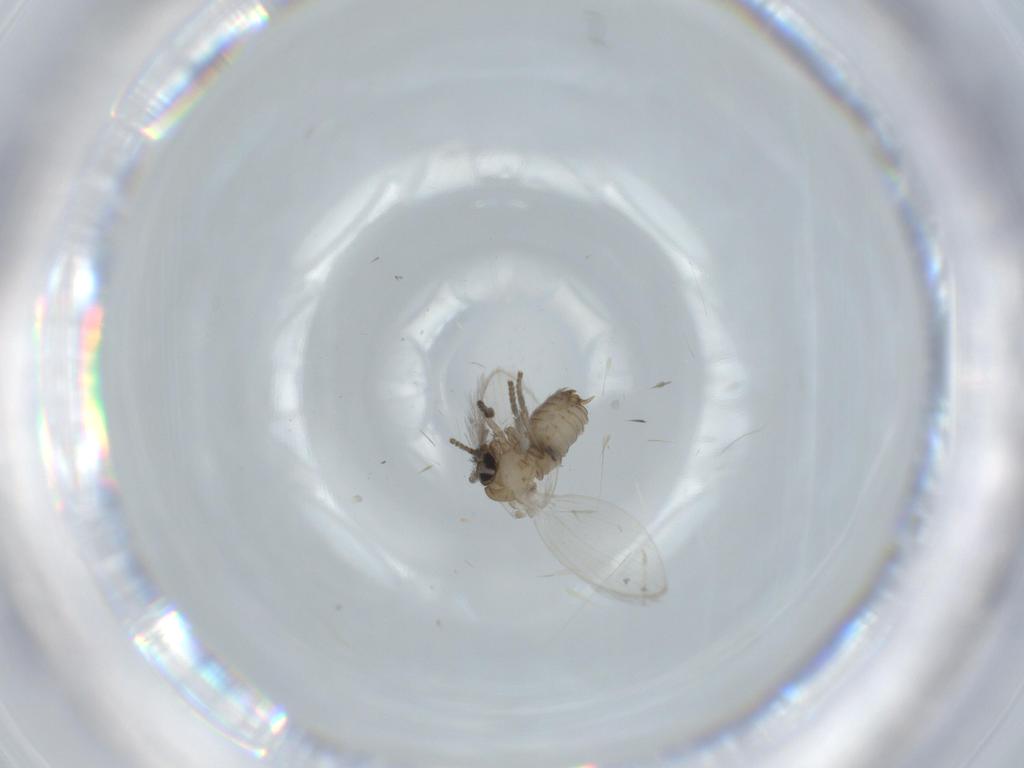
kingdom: Animalia
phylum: Arthropoda
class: Insecta
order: Diptera
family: Psychodidae
